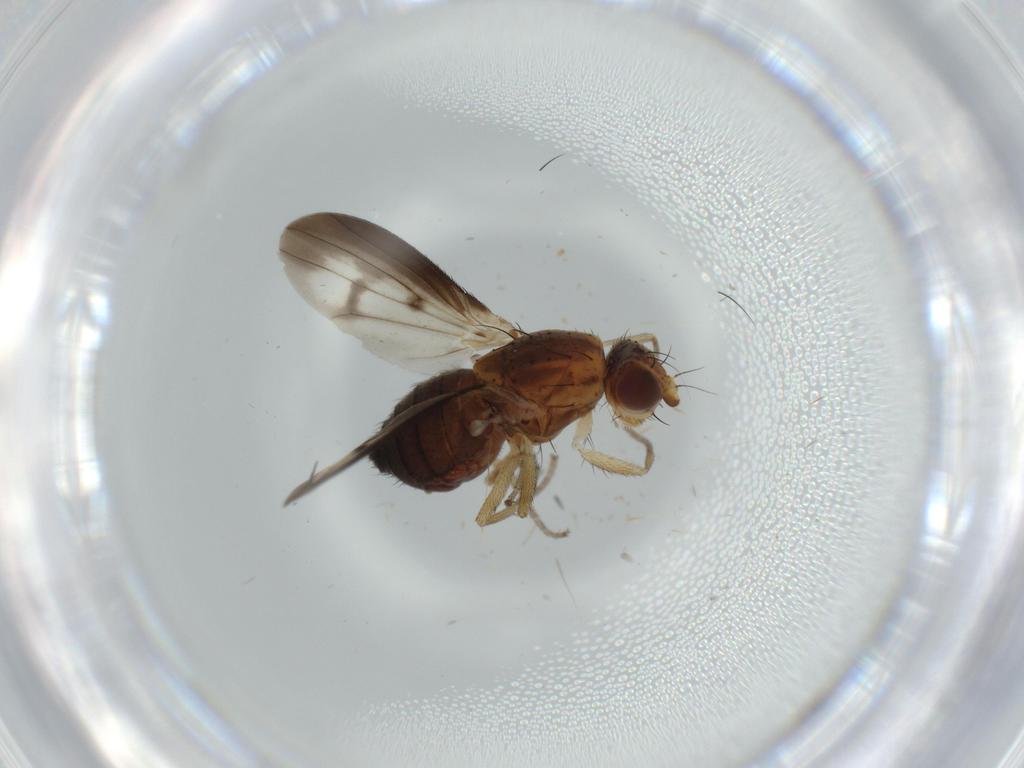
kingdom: Animalia
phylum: Arthropoda
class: Insecta
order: Diptera
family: Heleomyzidae
